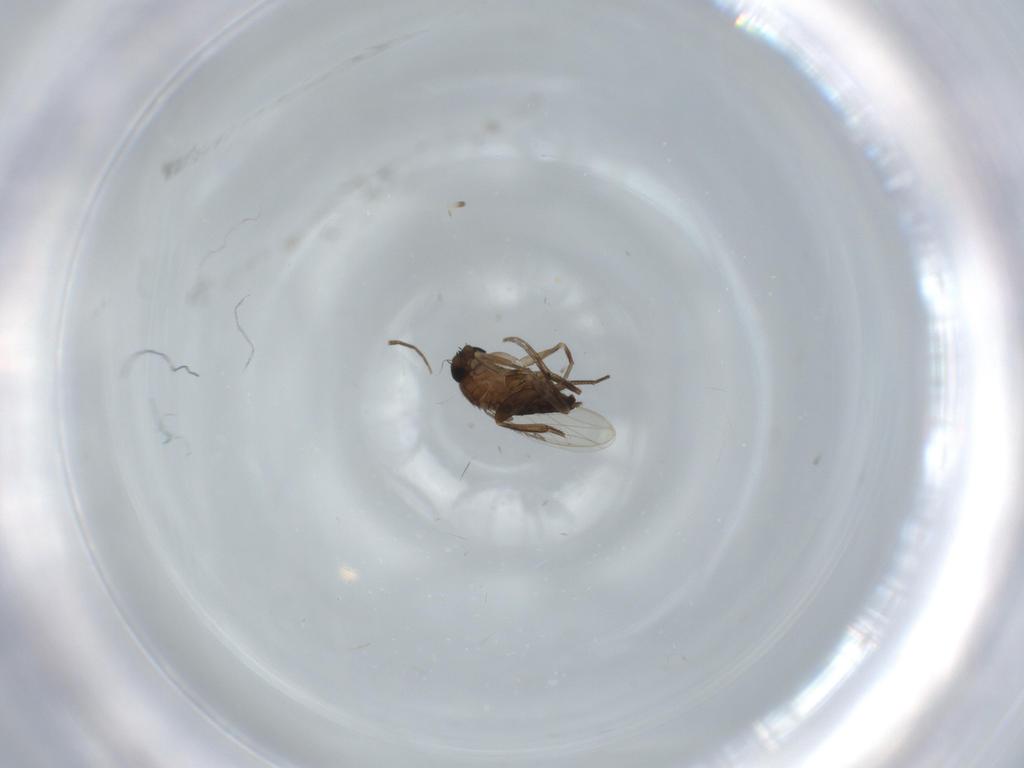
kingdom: Animalia
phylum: Arthropoda
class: Insecta
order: Diptera
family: Phoridae
